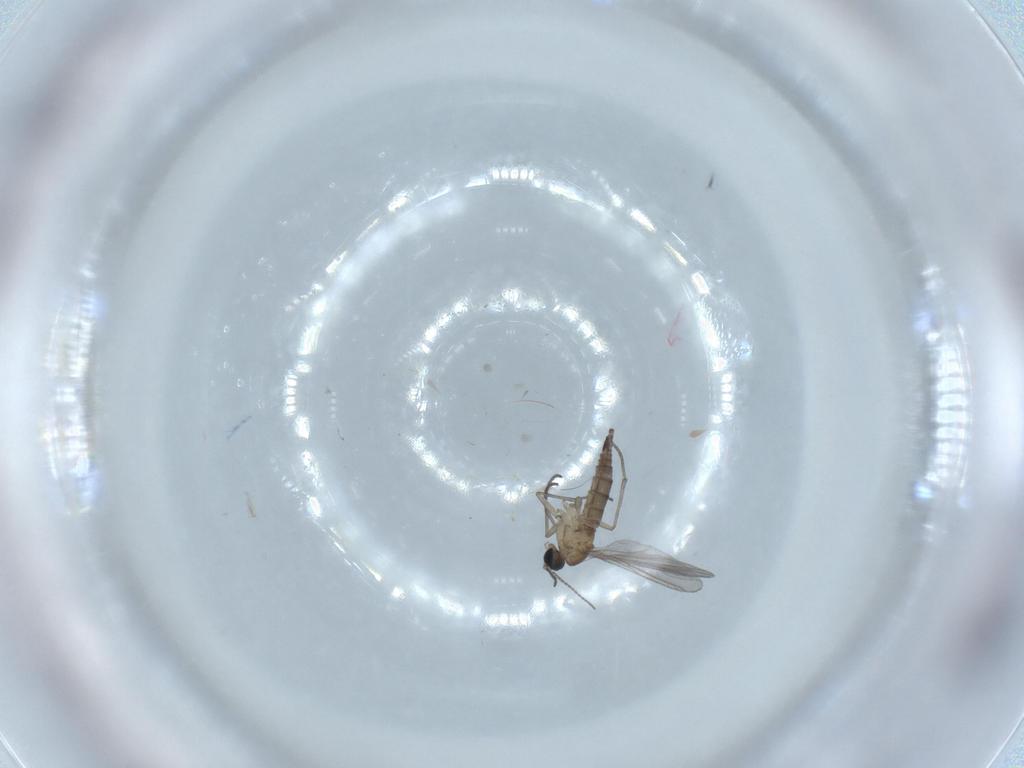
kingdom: Animalia
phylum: Arthropoda
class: Insecta
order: Diptera
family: Sciaridae
